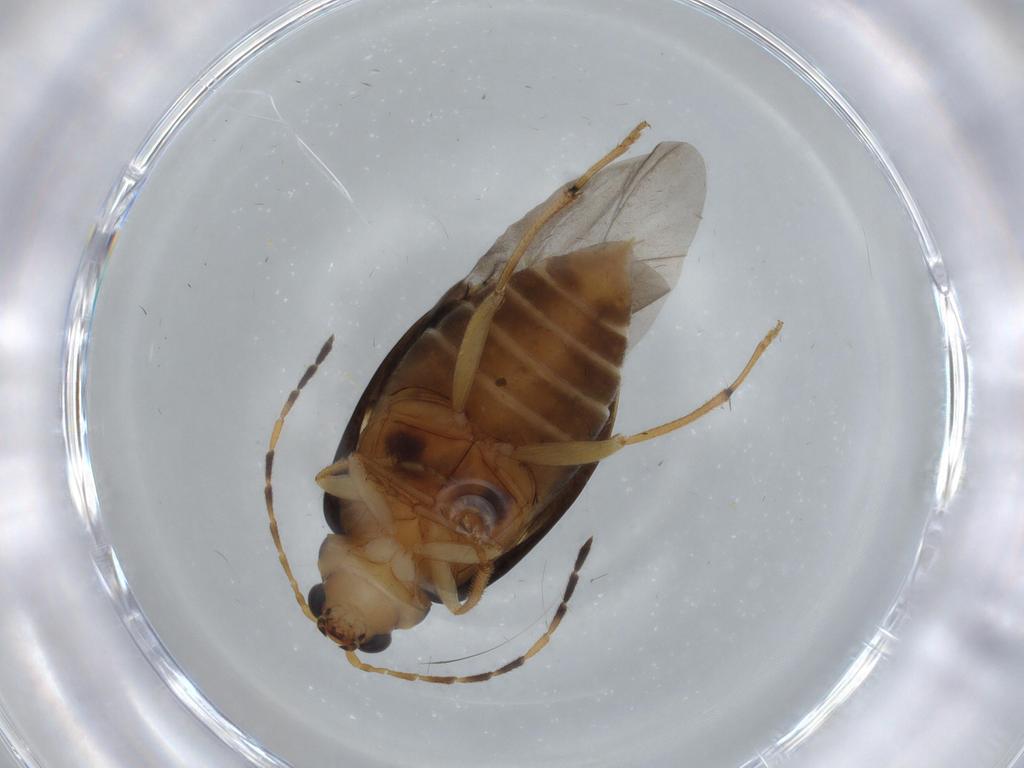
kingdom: Animalia
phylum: Arthropoda
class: Insecta
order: Coleoptera
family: Chrysomelidae
